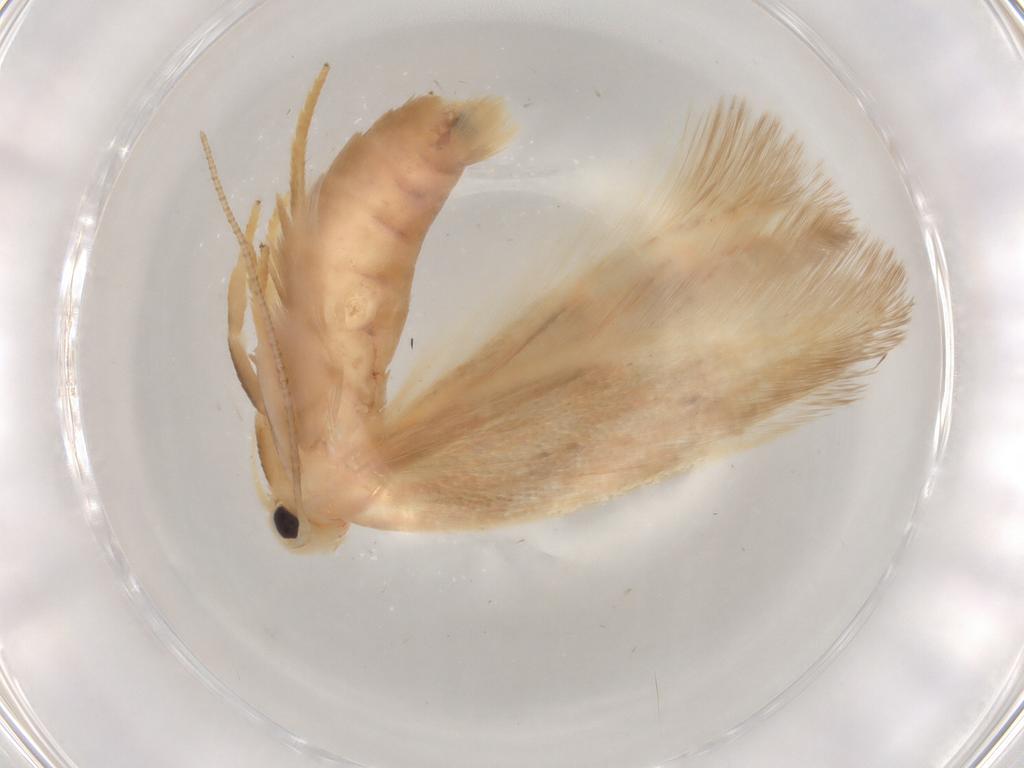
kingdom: Animalia
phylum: Arthropoda
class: Insecta
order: Lepidoptera
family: Geometridae
